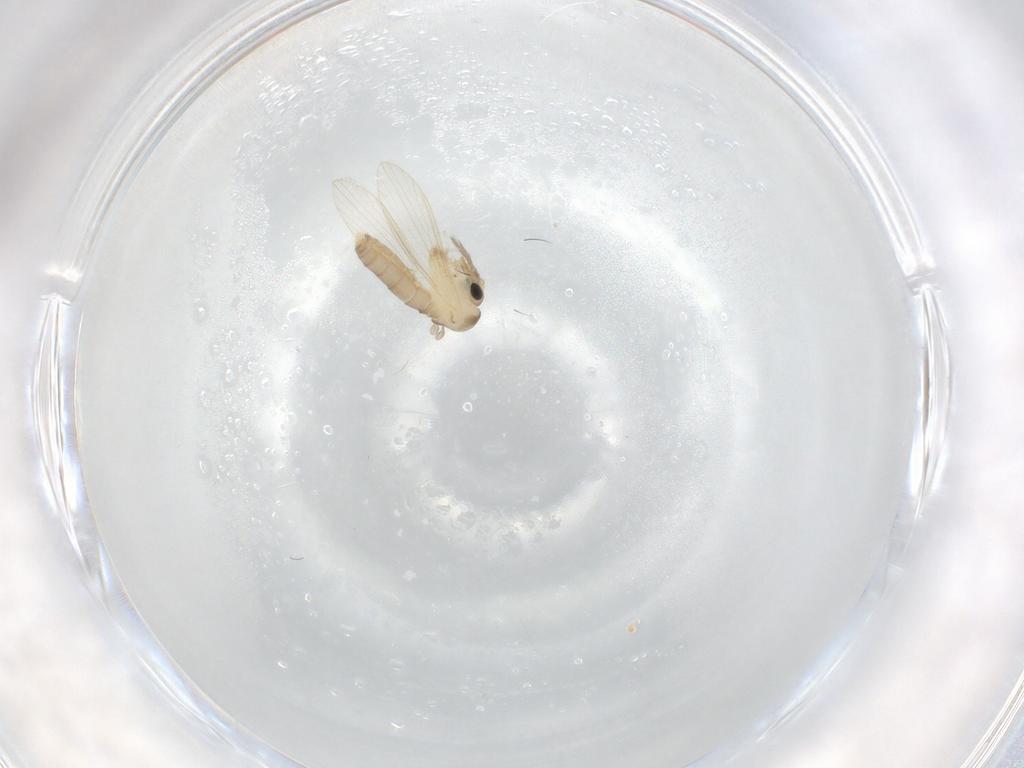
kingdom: Animalia
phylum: Arthropoda
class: Insecta
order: Diptera
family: Psychodidae
